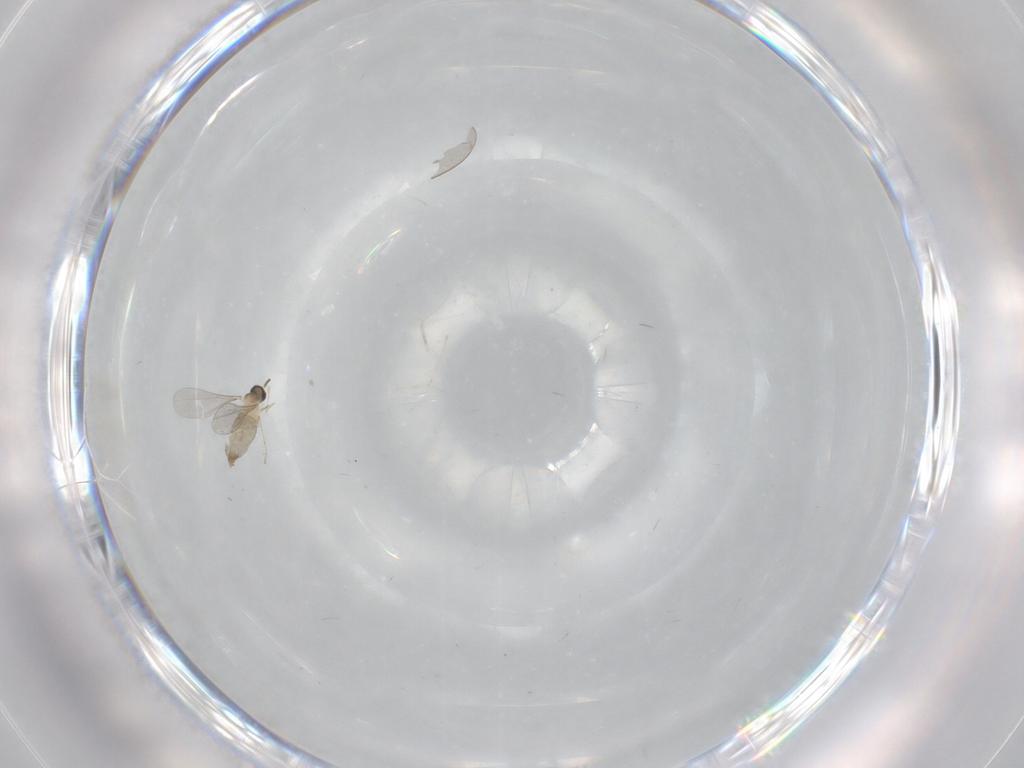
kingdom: Animalia
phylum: Arthropoda
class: Insecta
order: Diptera
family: Cecidomyiidae
